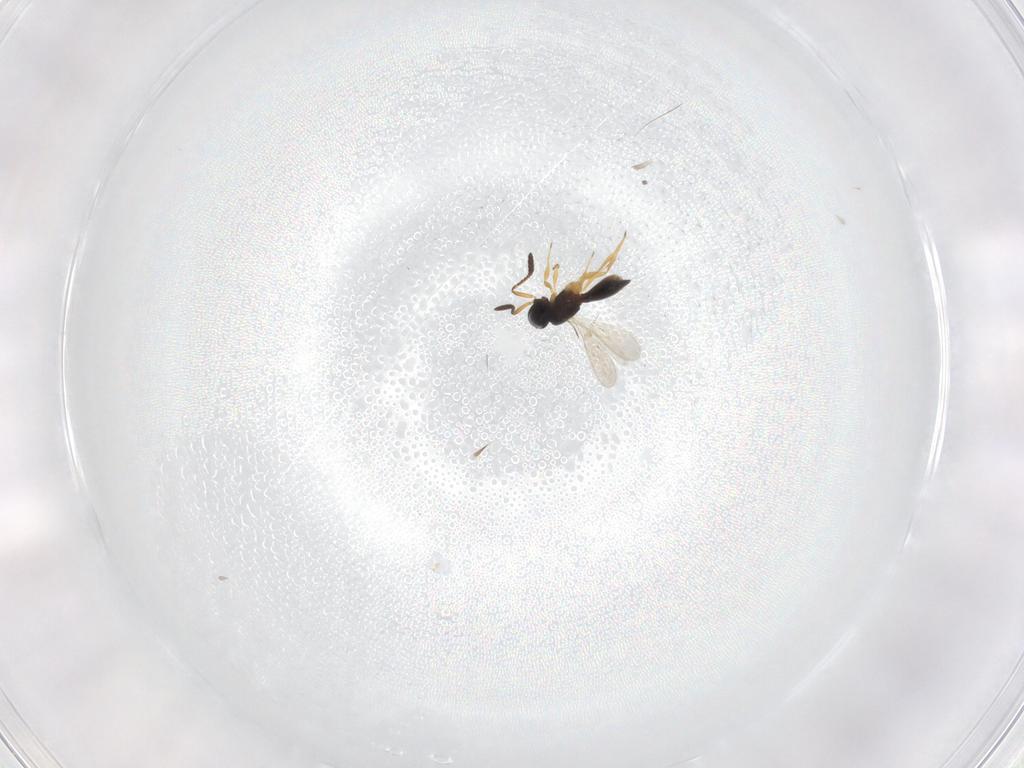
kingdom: Animalia
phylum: Arthropoda
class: Insecta
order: Hymenoptera
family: Scelionidae
